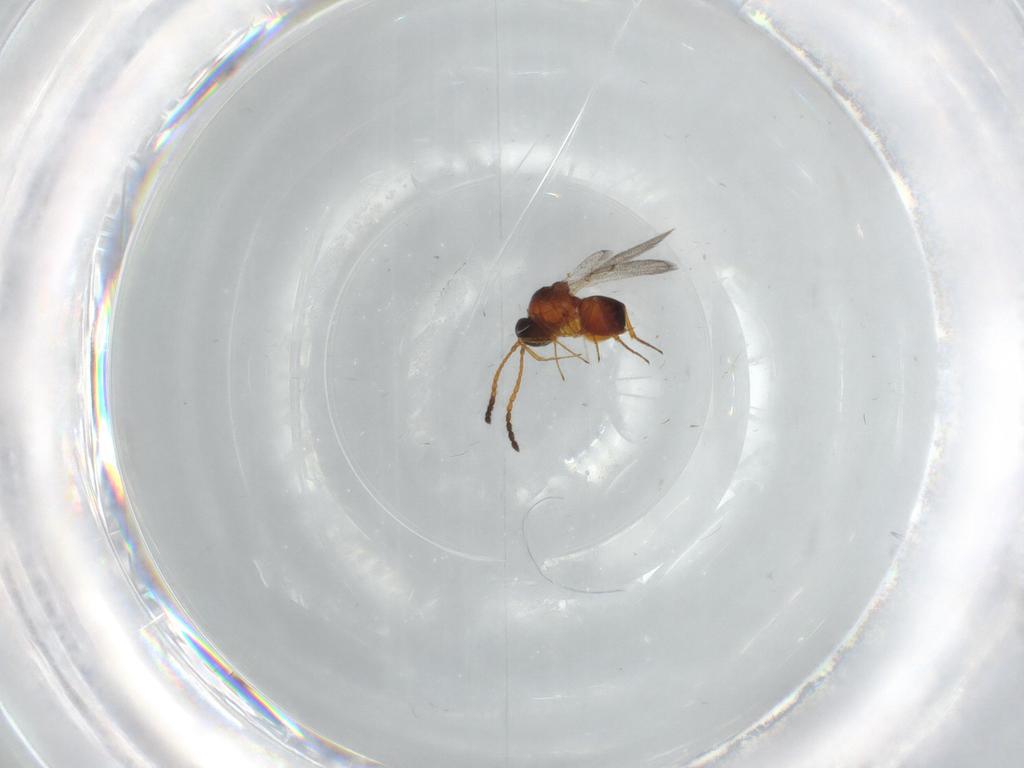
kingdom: Animalia
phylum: Arthropoda
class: Insecta
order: Hymenoptera
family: Figitidae
